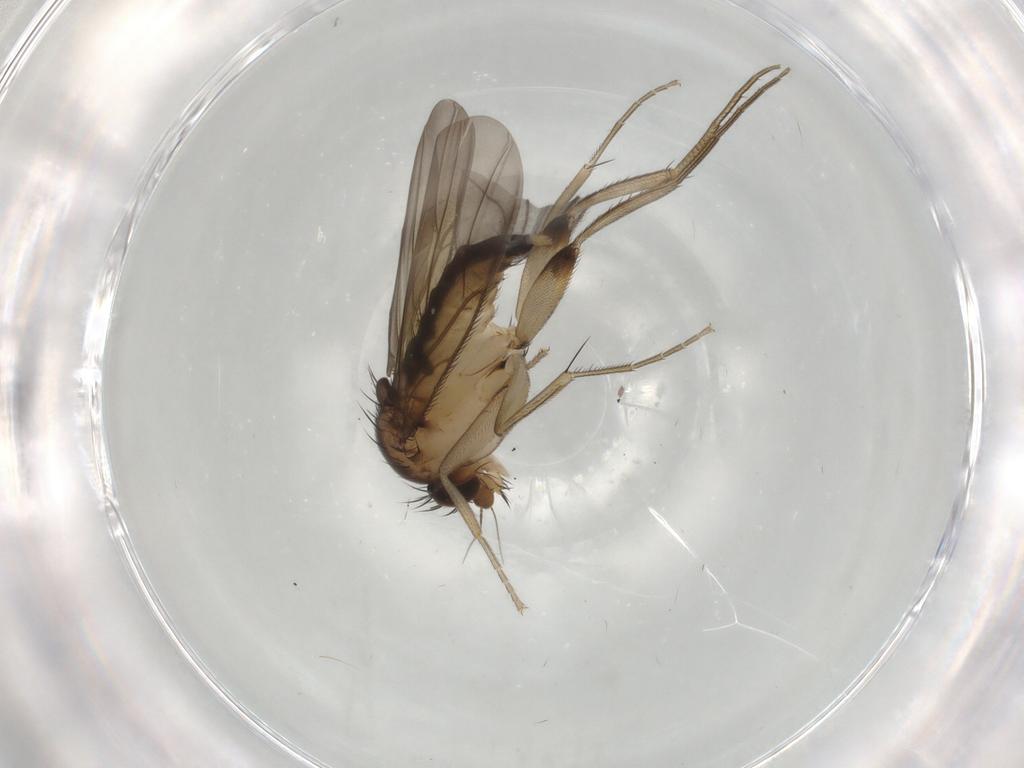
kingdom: Animalia
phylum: Arthropoda
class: Insecta
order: Diptera
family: Phoridae
